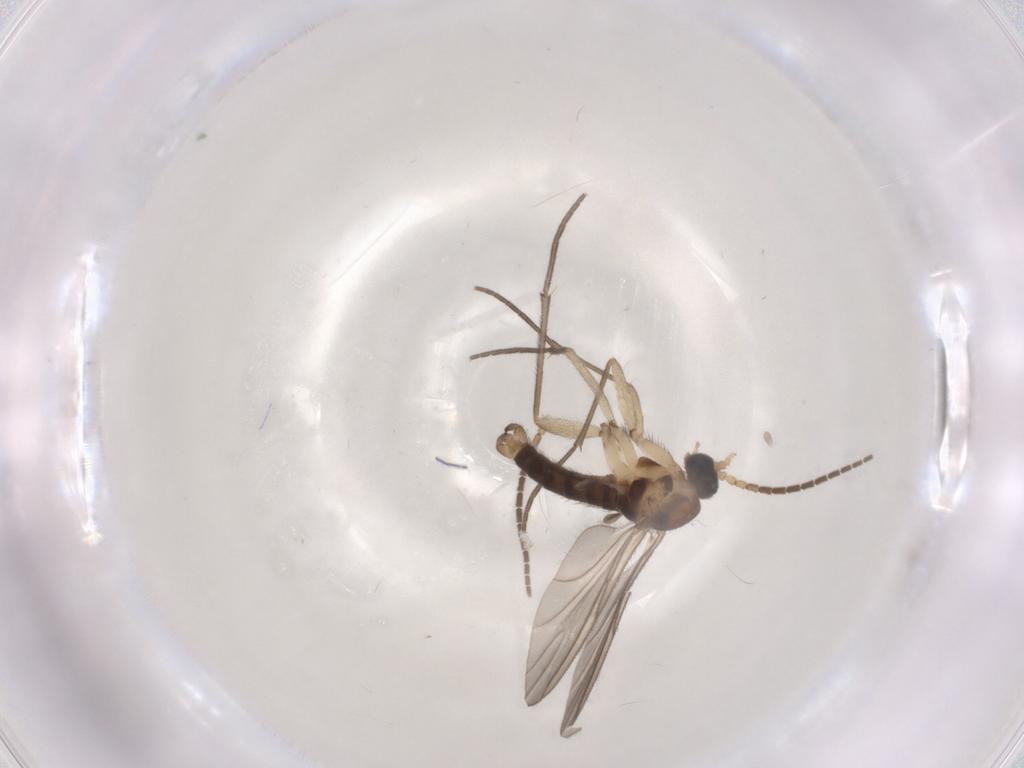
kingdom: Animalia
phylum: Arthropoda
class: Insecta
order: Diptera
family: Sciaridae
